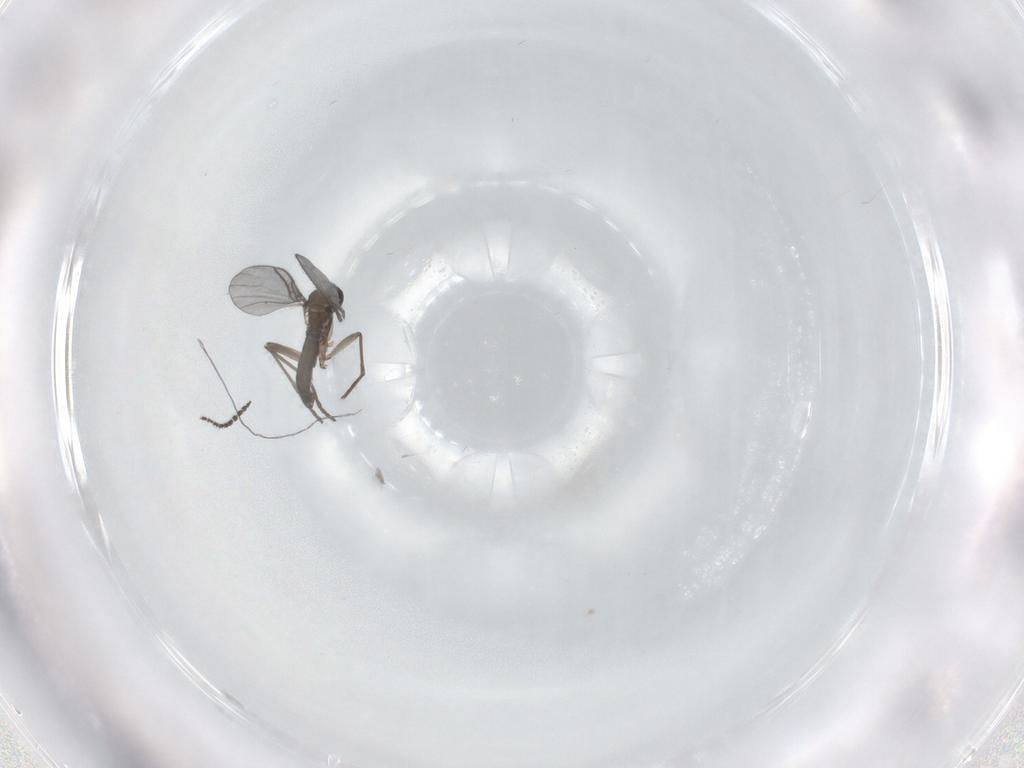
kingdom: Animalia
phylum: Arthropoda
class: Insecta
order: Diptera
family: Sciaridae
